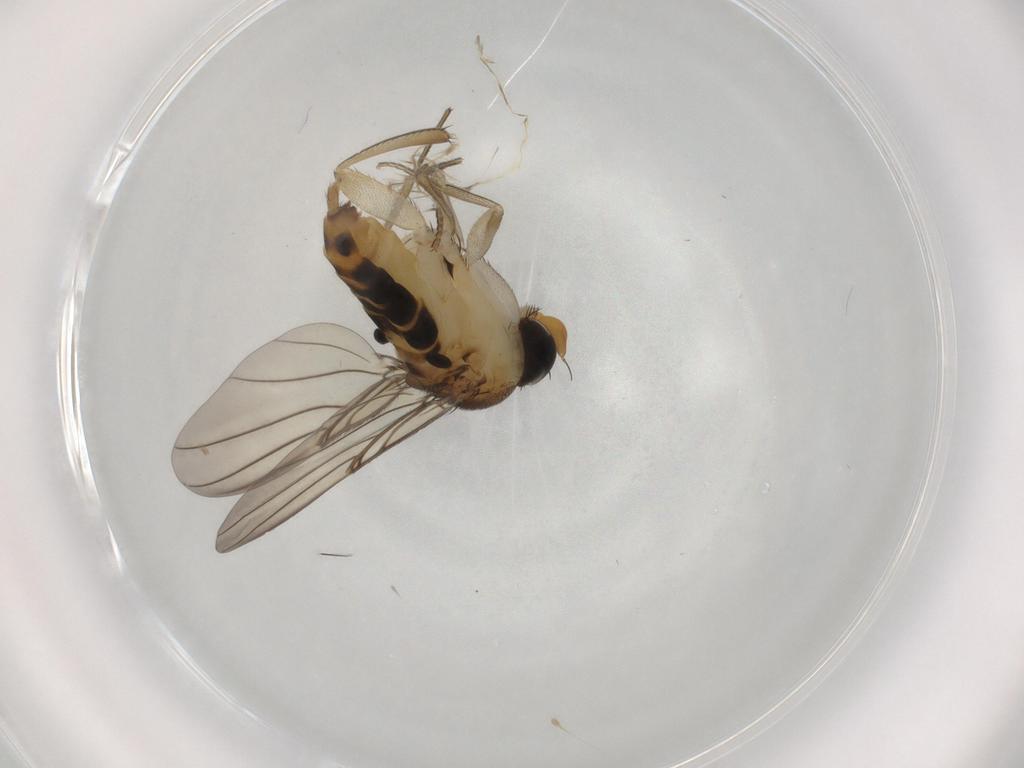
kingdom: Animalia
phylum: Arthropoda
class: Insecta
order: Diptera
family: Phoridae
